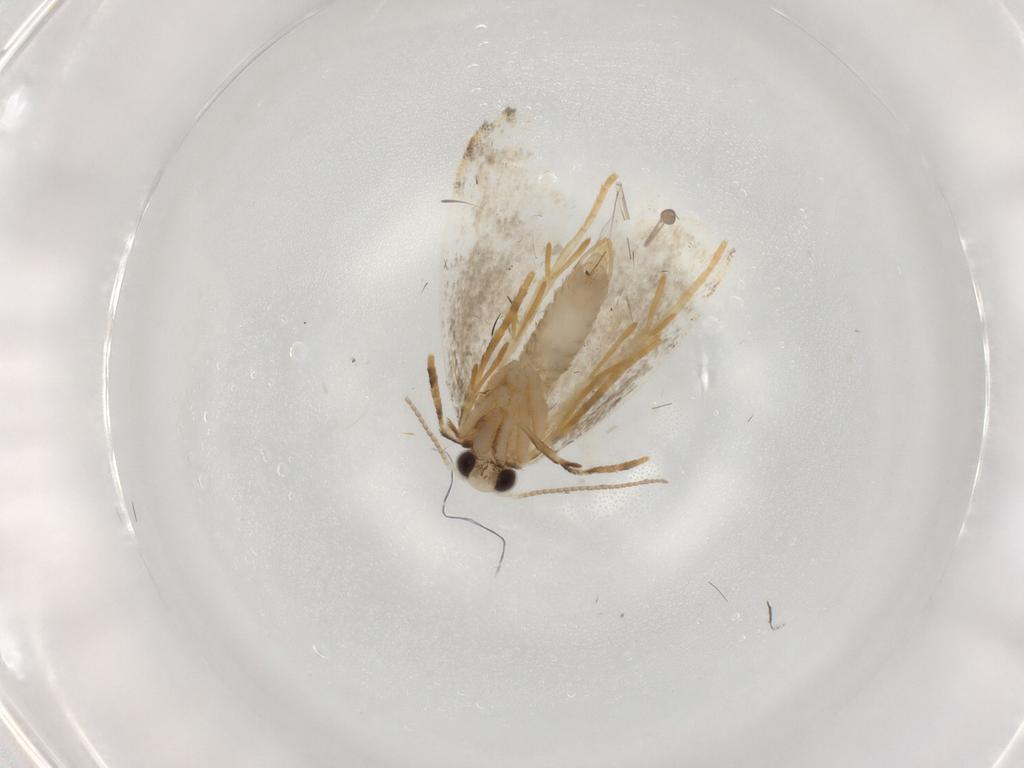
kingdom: Animalia
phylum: Arthropoda
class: Insecta
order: Lepidoptera
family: Psychidae
